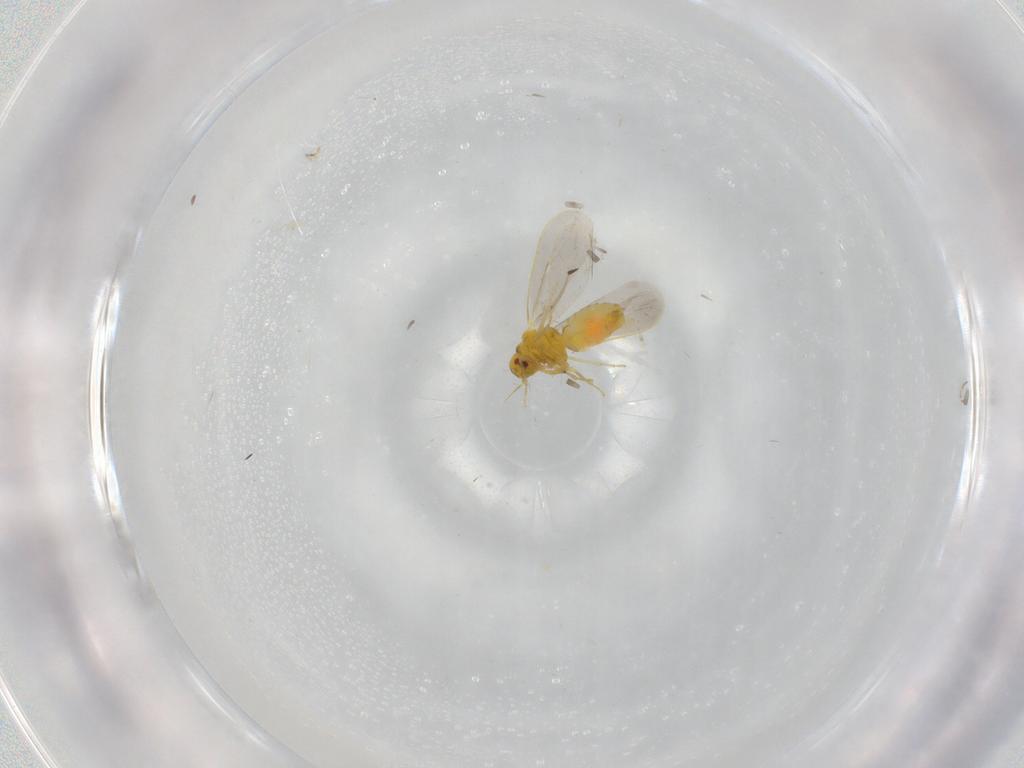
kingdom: Animalia
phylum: Arthropoda
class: Insecta
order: Hemiptera
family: Aleyrodidae
